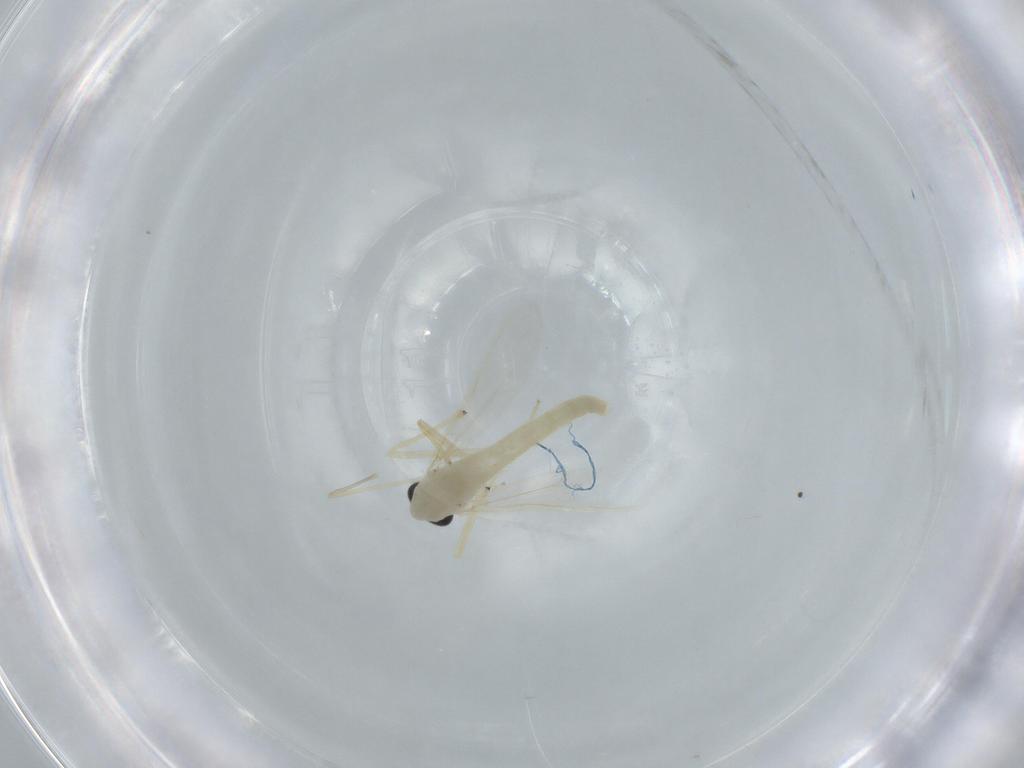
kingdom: Animalia
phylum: Arthropoda
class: Insecta
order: Diptera
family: Chironomidae
